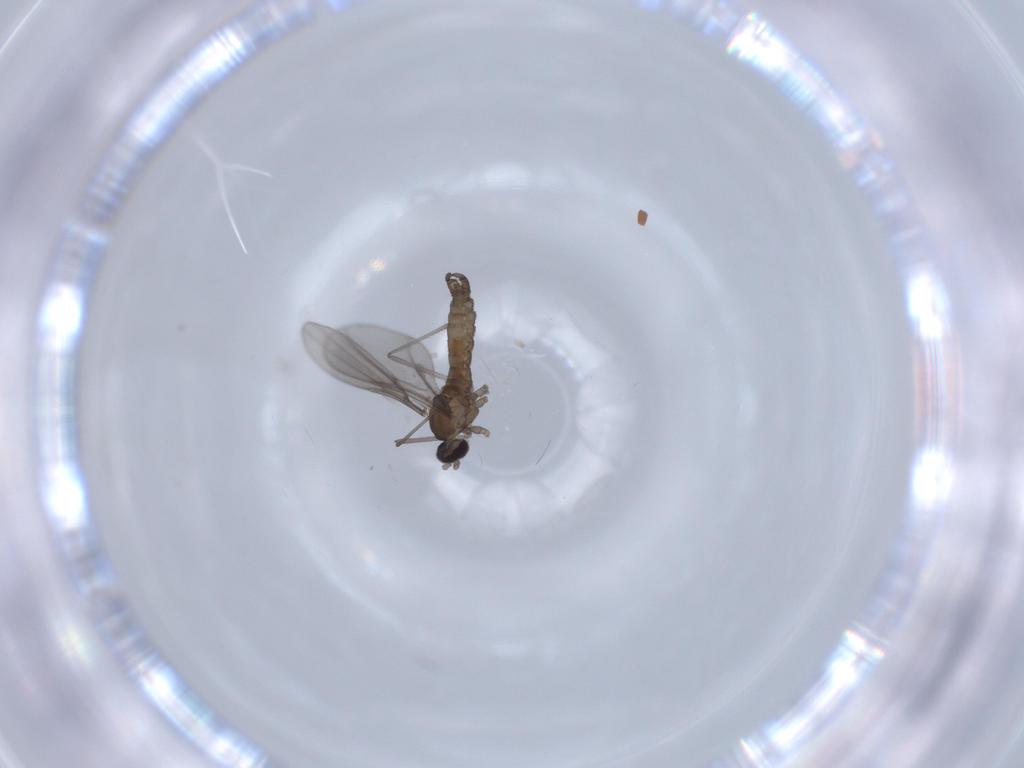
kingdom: Animalia
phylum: Arthropoda
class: Insecta
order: Diptera
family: Cecidomyiidae
